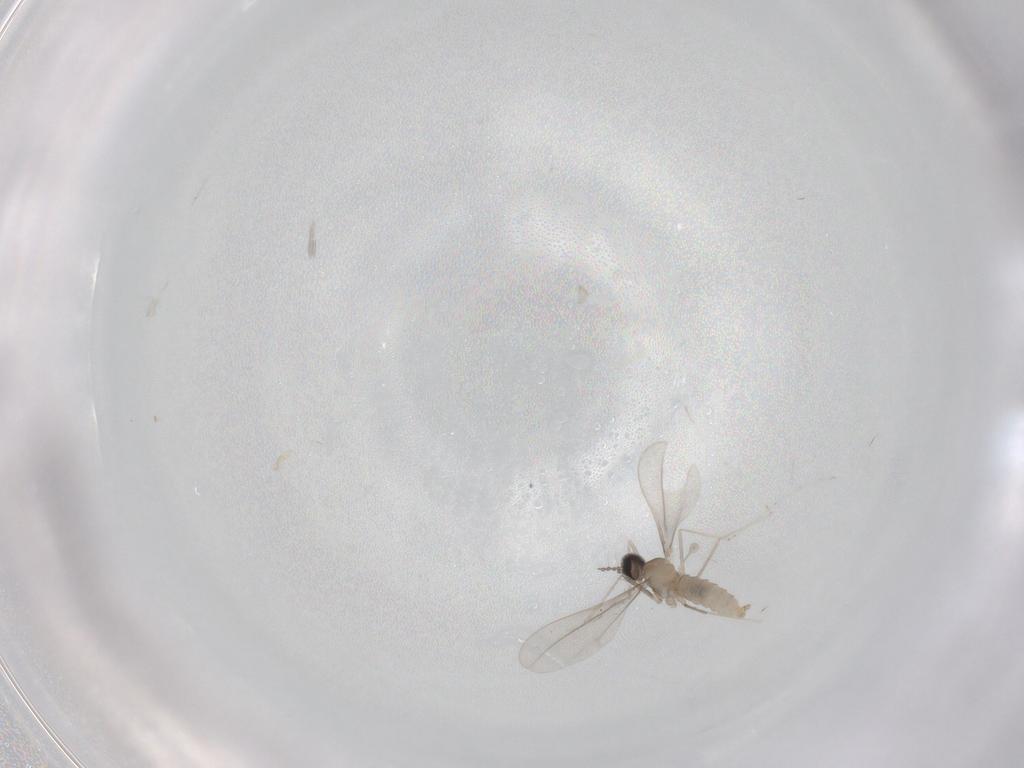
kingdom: Animalia
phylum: Arthropoda
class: Insecta
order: Diptera
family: Cecidomyiidae
